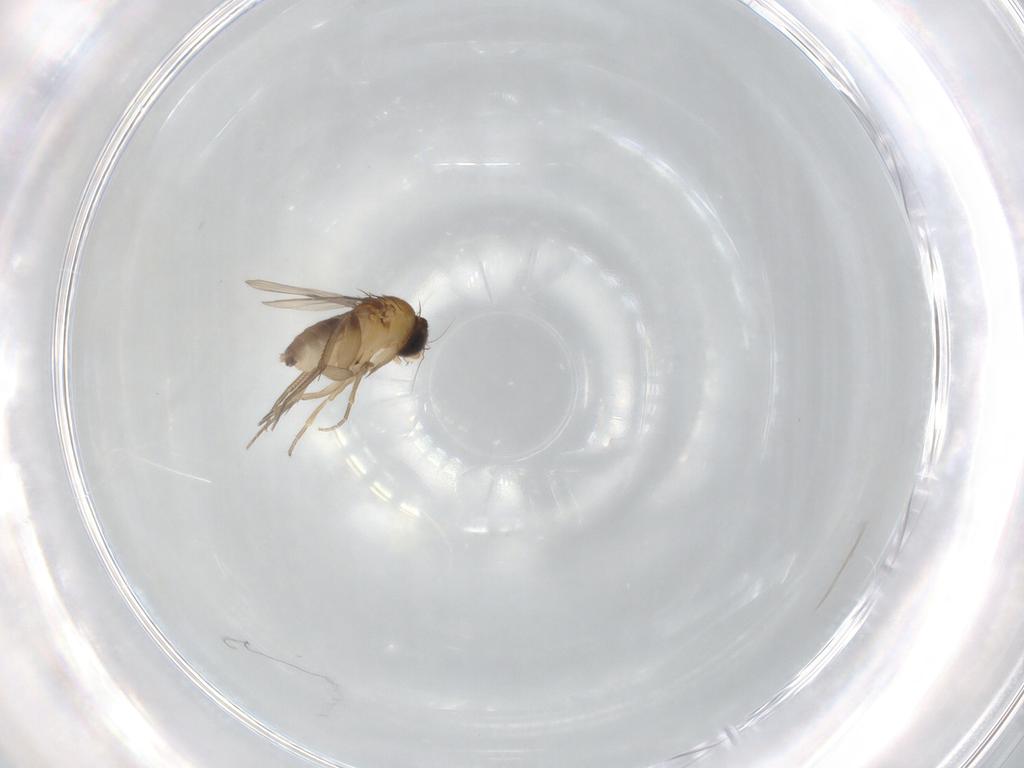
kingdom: Animalia
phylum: Arthropoda
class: Insecta
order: Diptera
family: Phoridae
